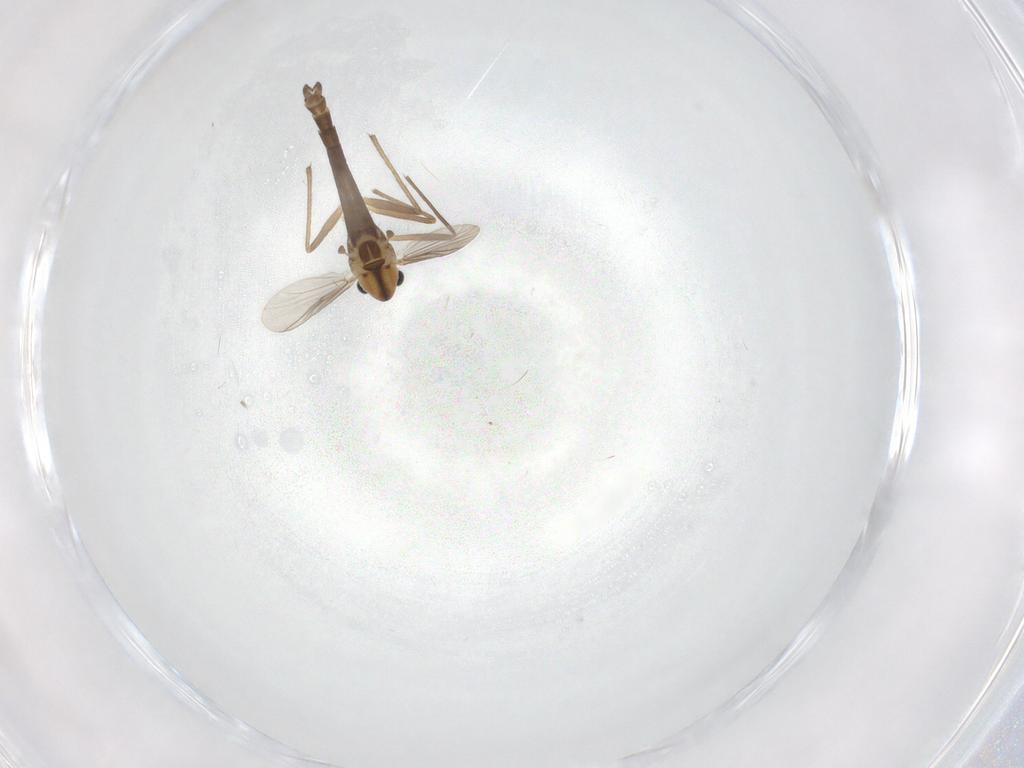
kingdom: Animalia
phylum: Arthropoda
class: Insecta
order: Diptera
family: Chironomidae
